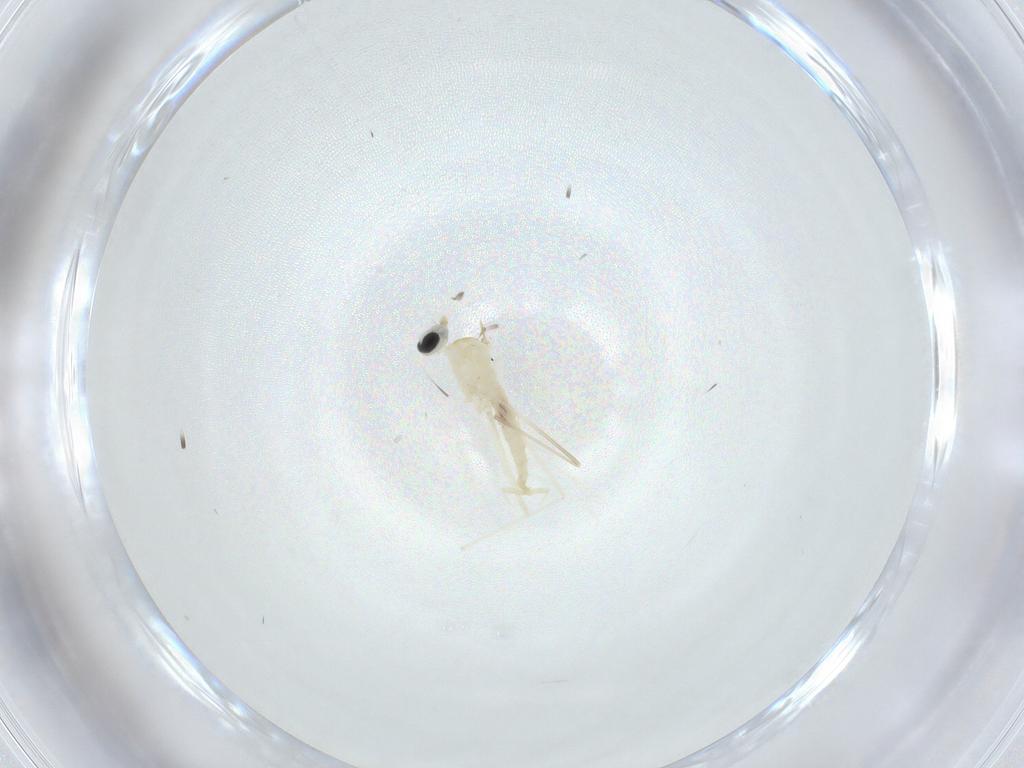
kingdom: Animalia
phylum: Arthropoda
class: Insecta
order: Diptera
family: Cecidomyiidae
